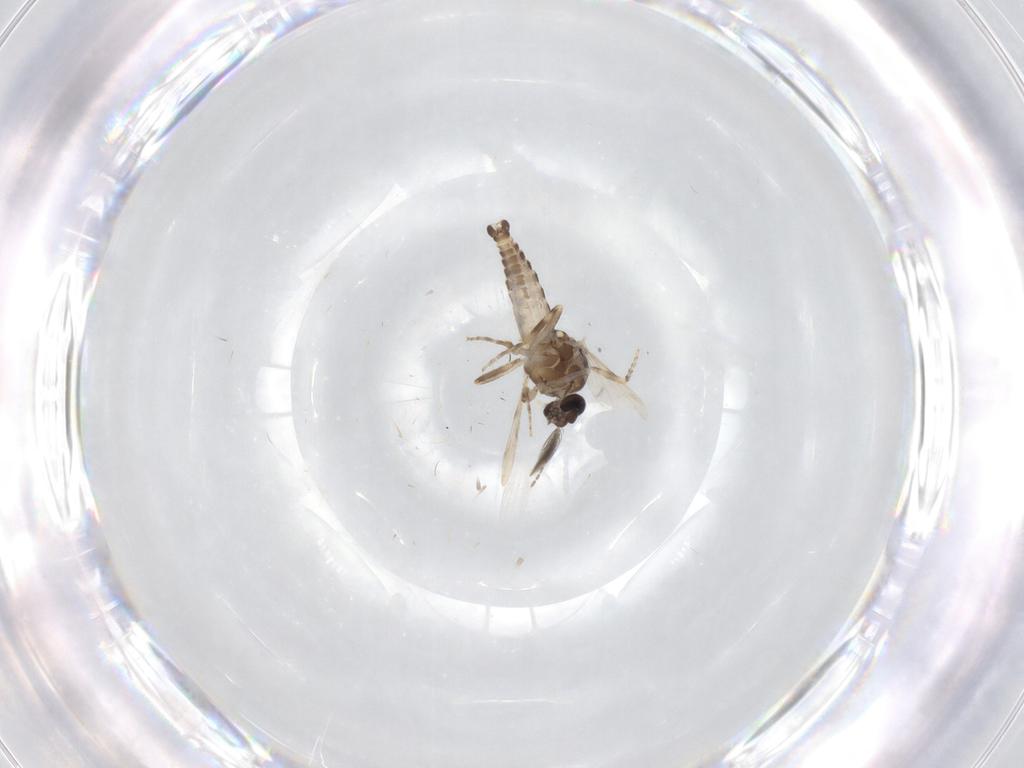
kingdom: Animalia
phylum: Arthropoda
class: Insecta
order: Diptera
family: Ceratopogonidae
